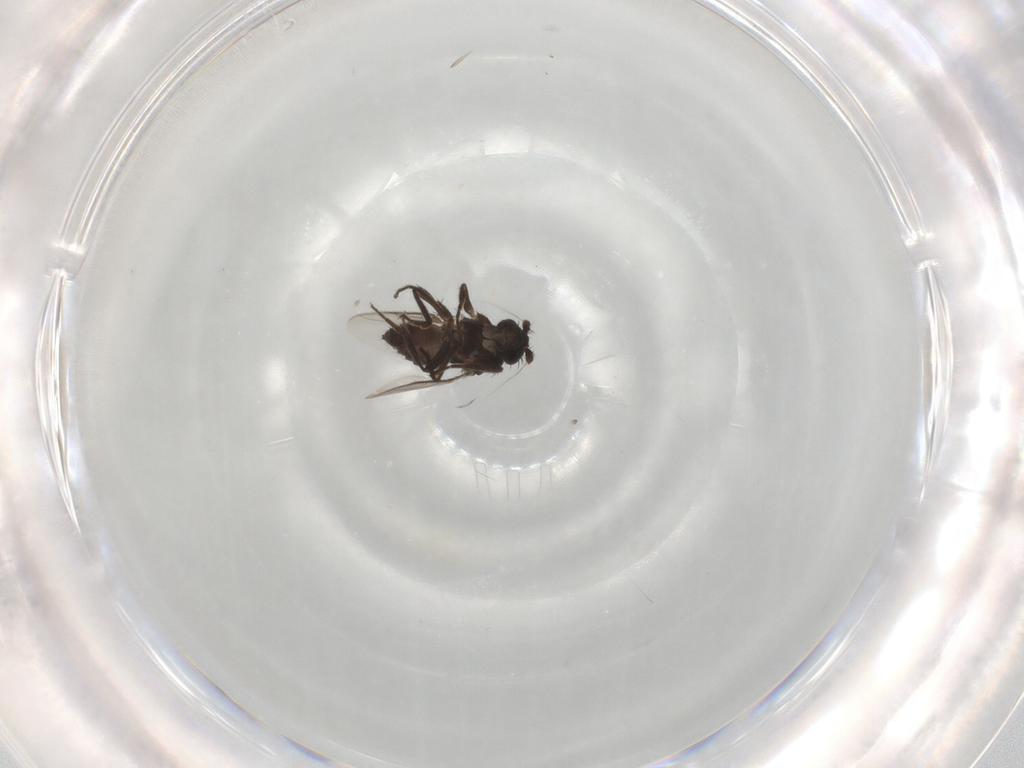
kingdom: Animalia
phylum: Arthropoda
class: Insecta
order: Diptera
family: Sphaeroceridae
